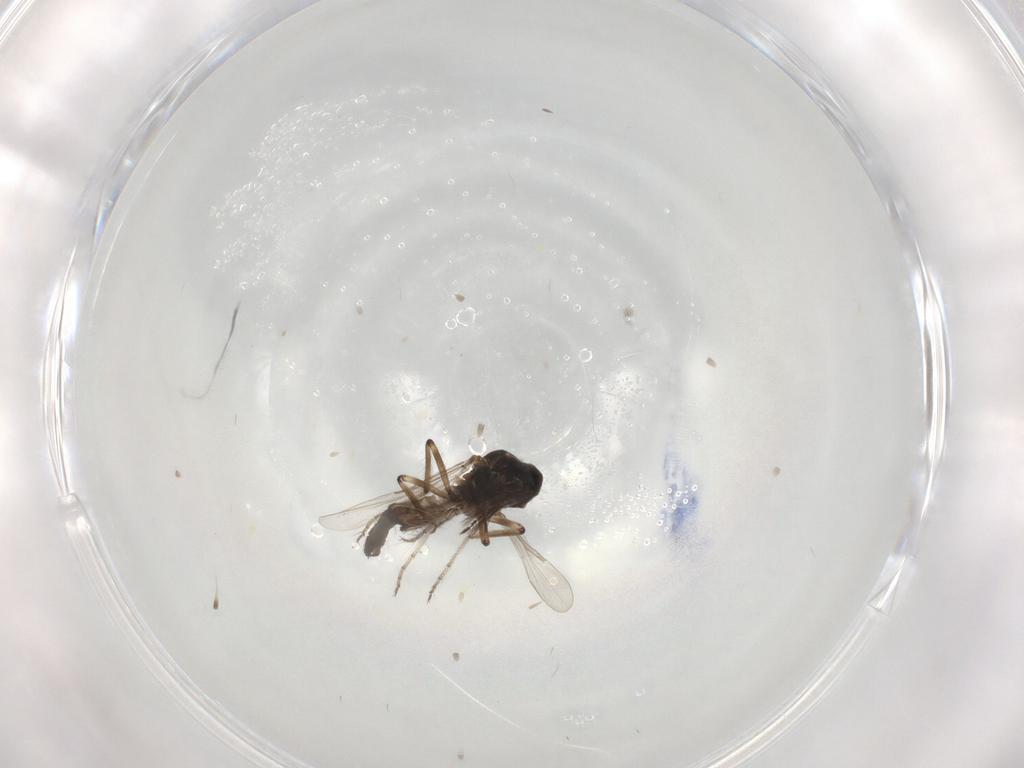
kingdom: Animalia
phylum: Arthropoda
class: Insecta
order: Diptera
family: Ceratopogonidae
